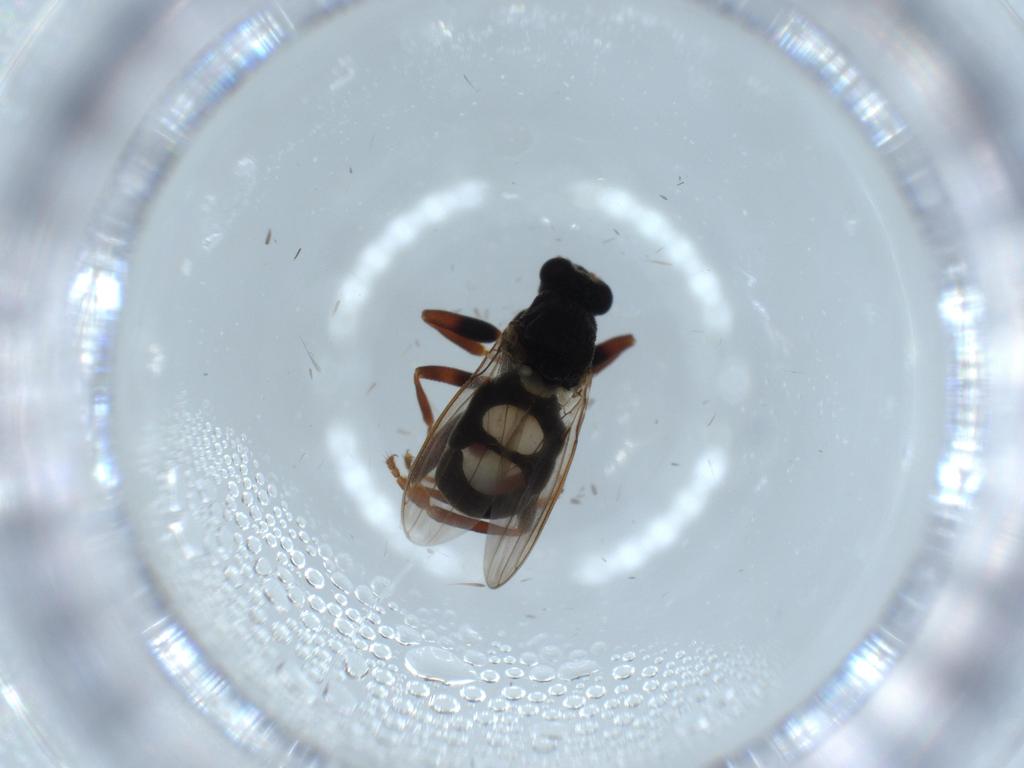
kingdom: Animalia
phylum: Arthropoda
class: Insecta
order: Diptera
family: Sphaeroceridae
